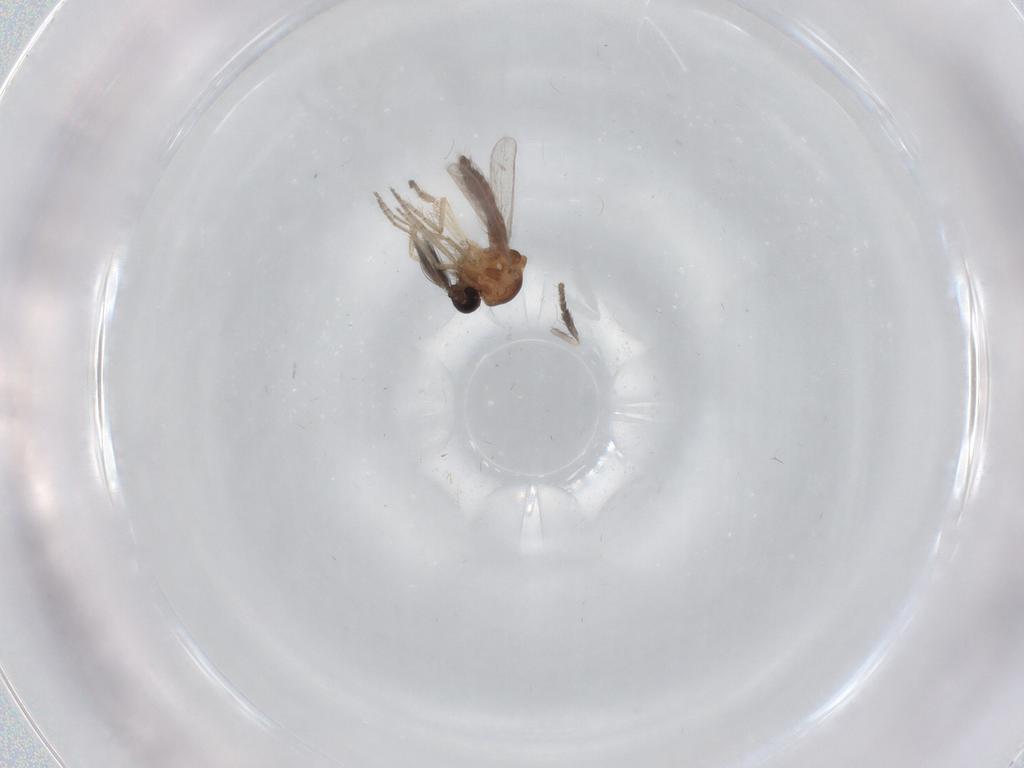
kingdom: Animalia
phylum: Arthropoda
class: Insecta
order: Diptera
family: Psychodidae
